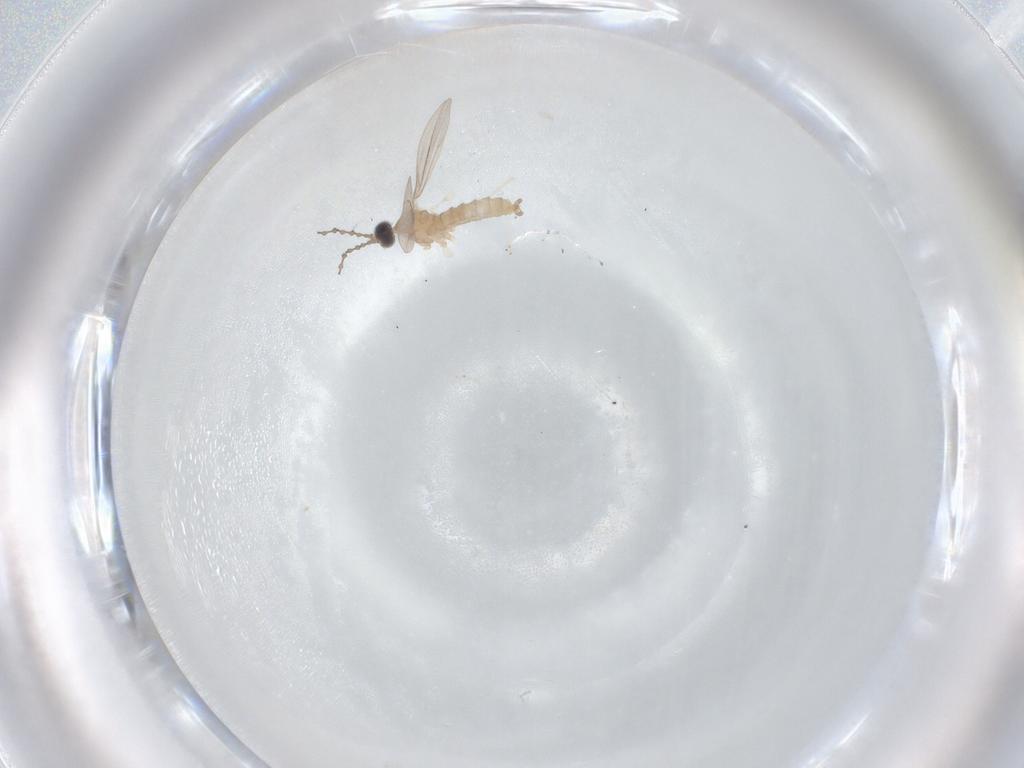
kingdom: Animalia
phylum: Arthropoda
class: Insecta
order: Diptera
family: Cecidomyiidae
